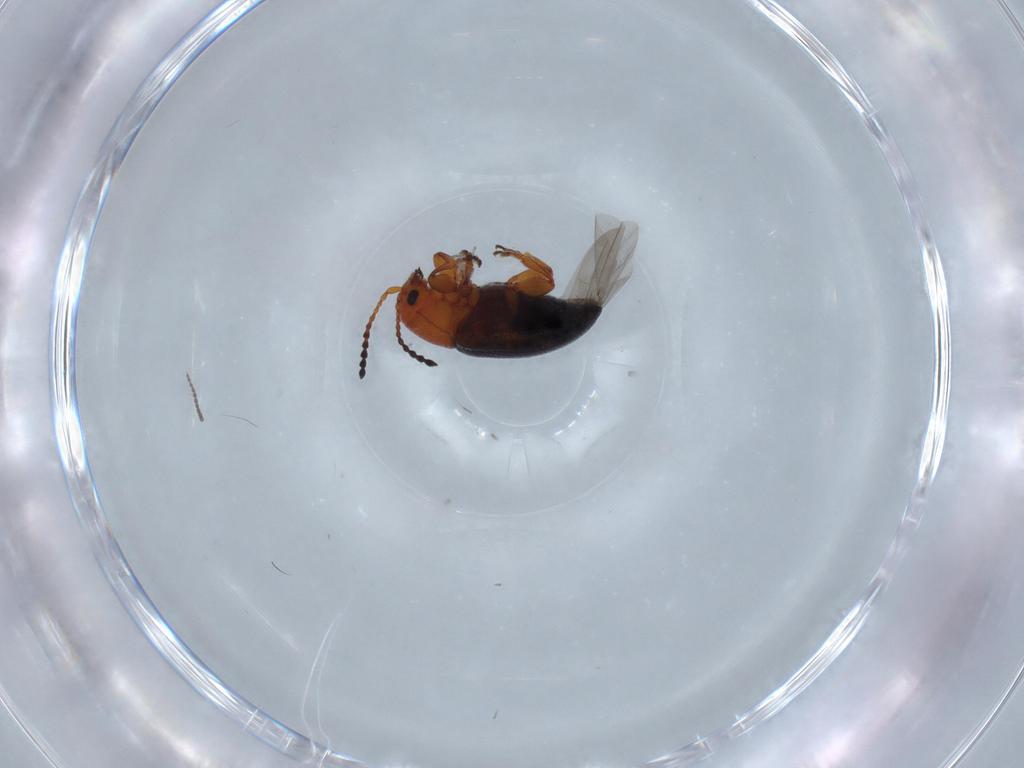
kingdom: Animalia
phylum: Arthropoda
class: Insecta
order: Coleoptera
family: Chrysomelidae
